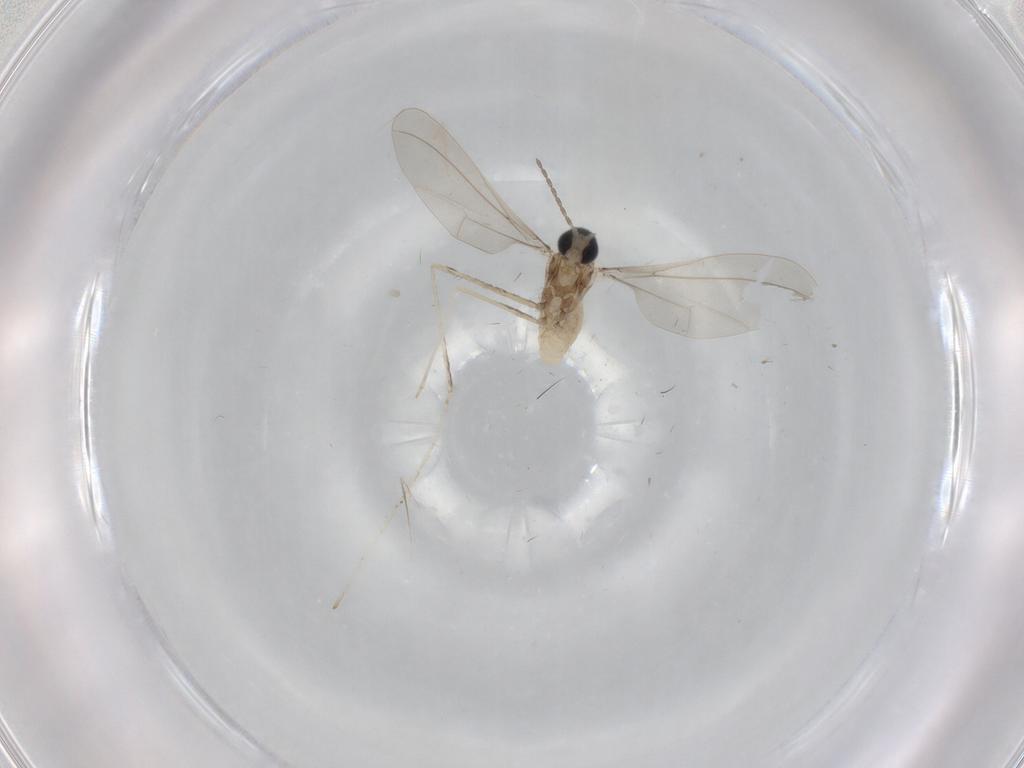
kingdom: Animalia
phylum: Arthropoda
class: Insecta
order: Diptera
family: Cecidomyiidae
